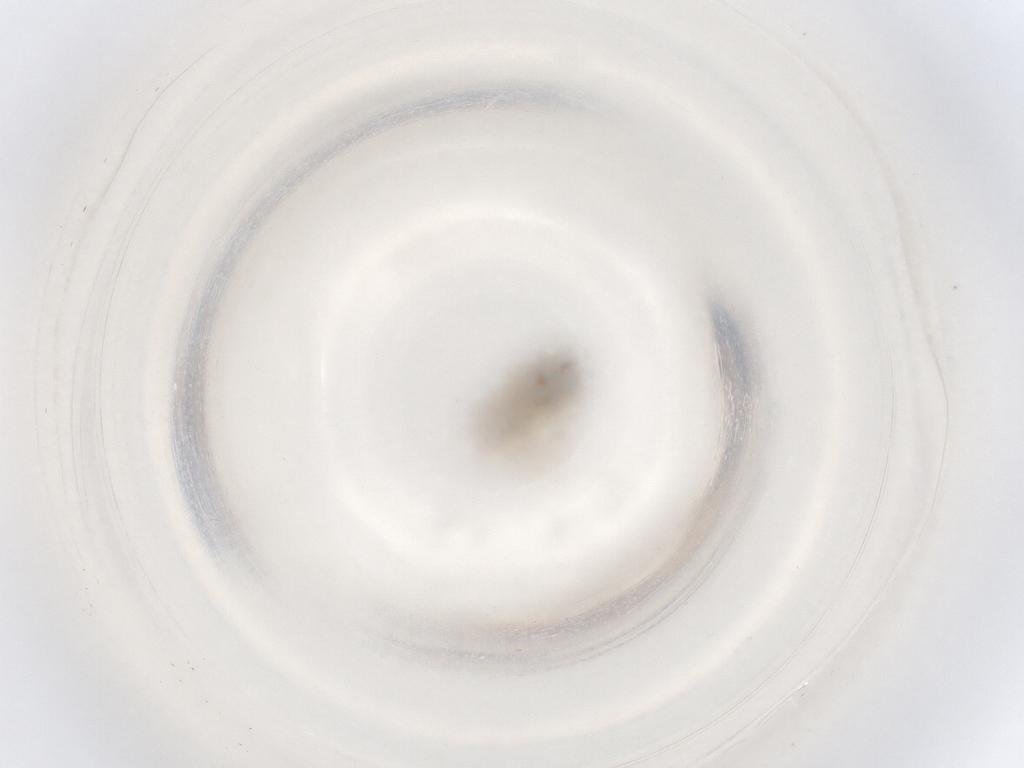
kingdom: Animalia
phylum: Arthropoda
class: Insecta
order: Diptera
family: Cecidomyiidae
